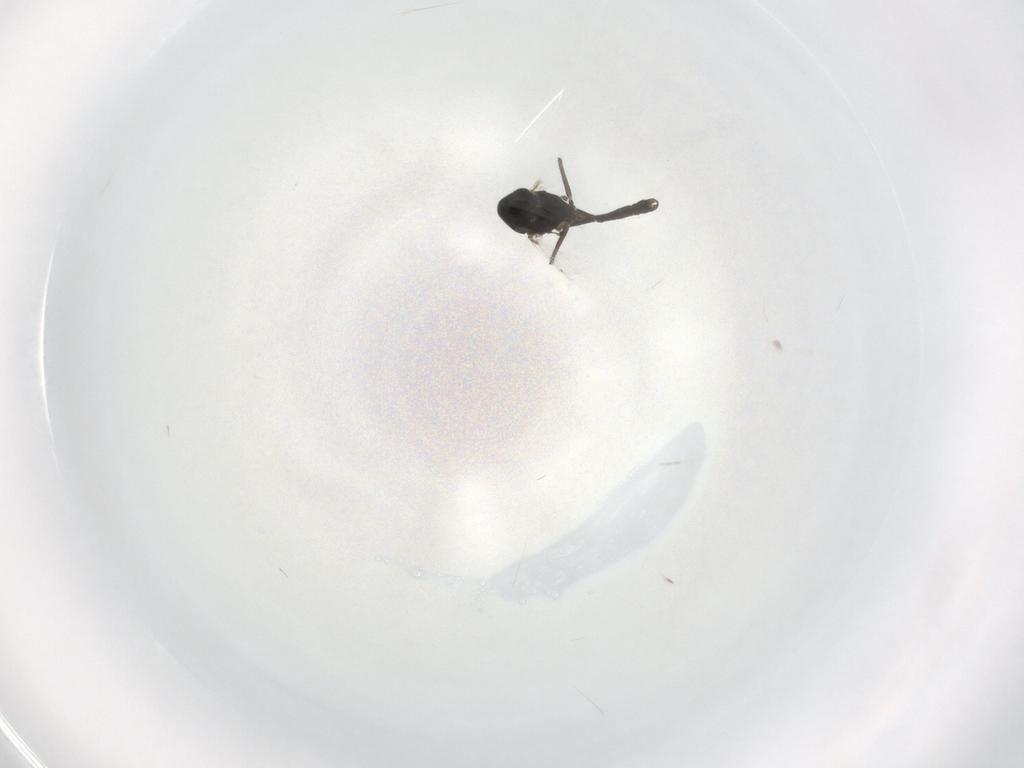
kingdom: Animalia
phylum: Arthropoda
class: Insecta
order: Diptera
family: Chironomidae
